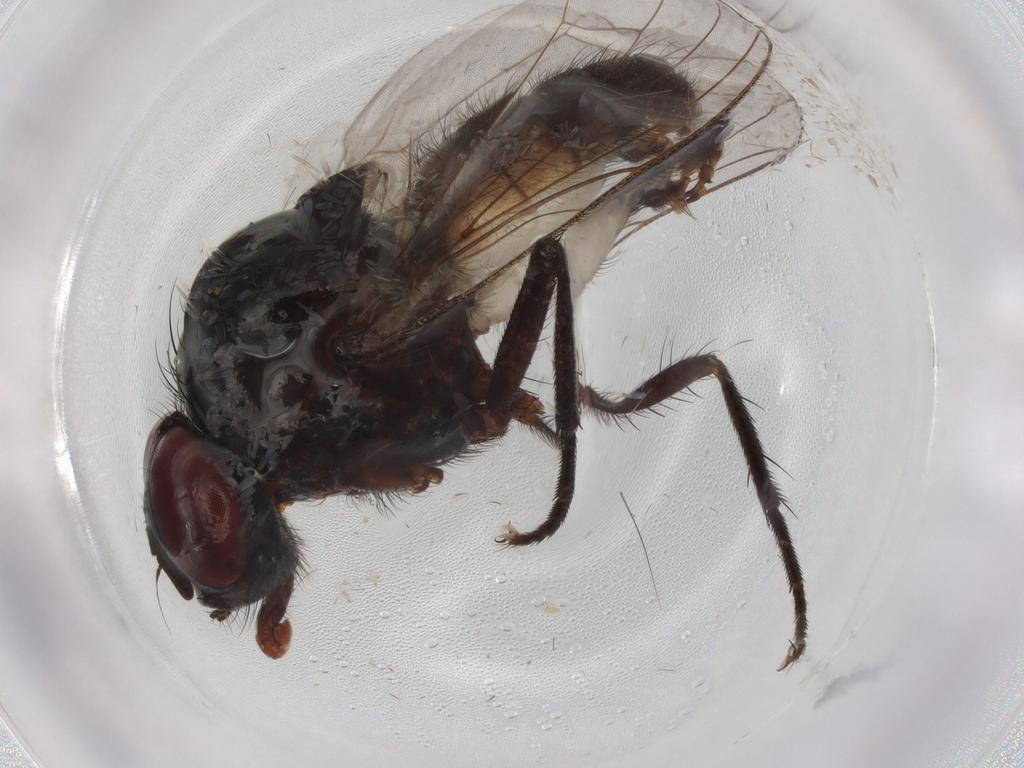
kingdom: Animalia
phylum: Arthropoda
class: Insecta
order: Diptera
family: Anthomyiidae
